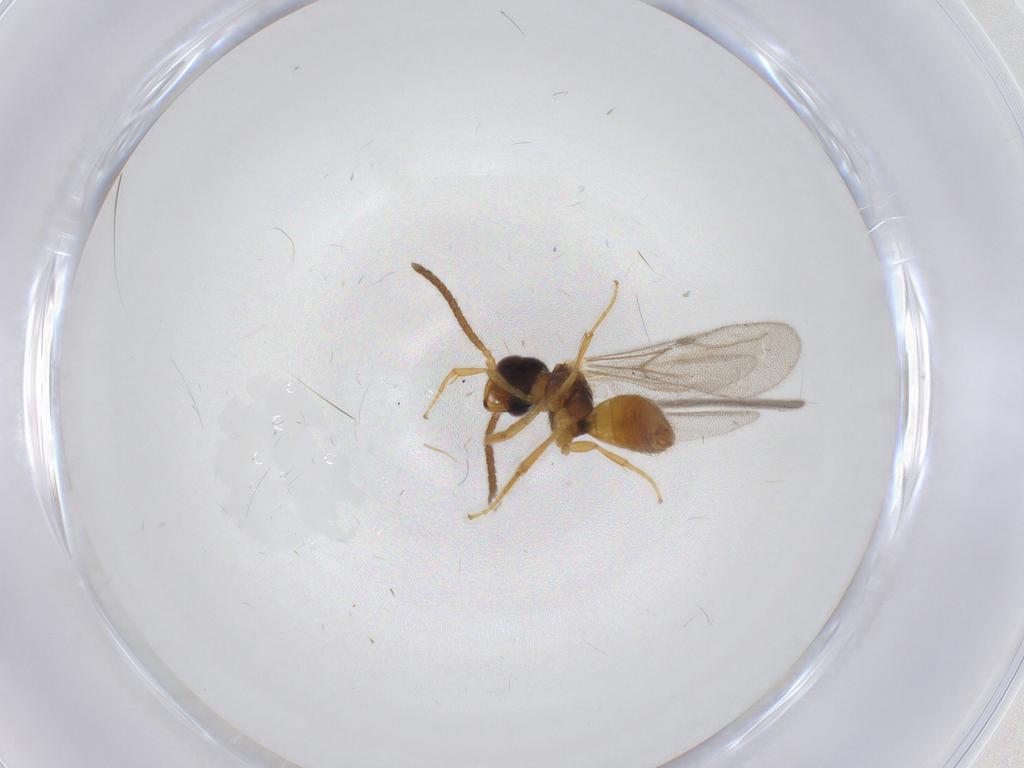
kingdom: Animalia
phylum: Arthropoda
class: Insecta
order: Hymenoptera
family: Bethylidae
